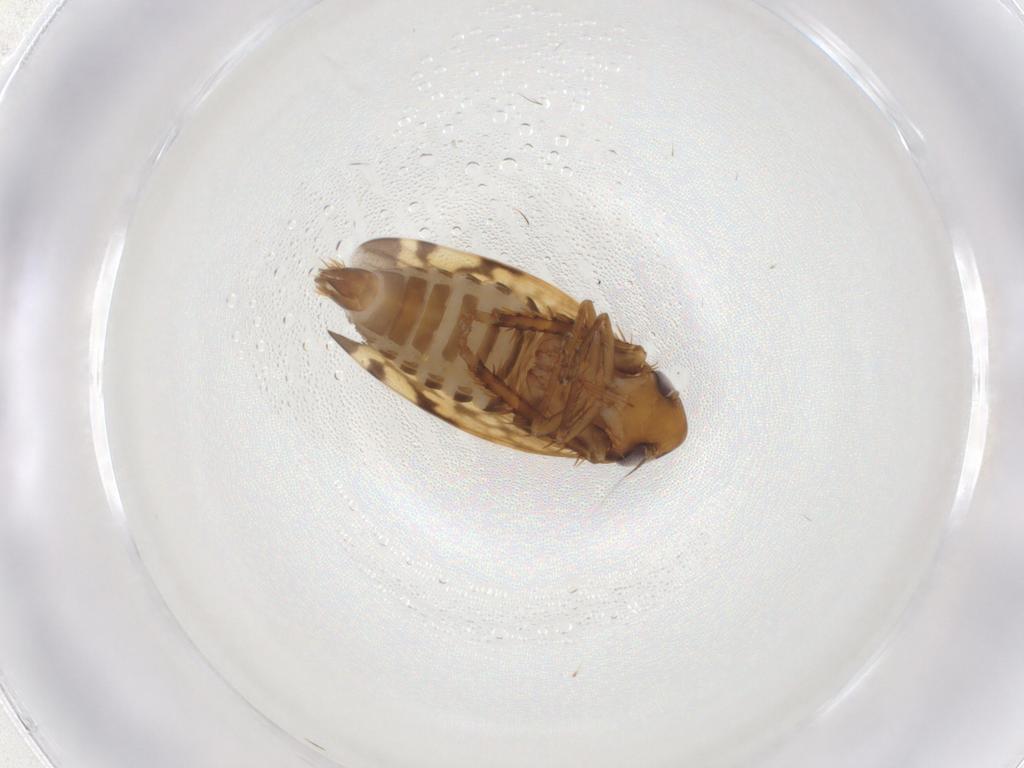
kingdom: Animalia
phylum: Arthropoda
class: Insecta
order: Hemiptera
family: Cicadellidae
